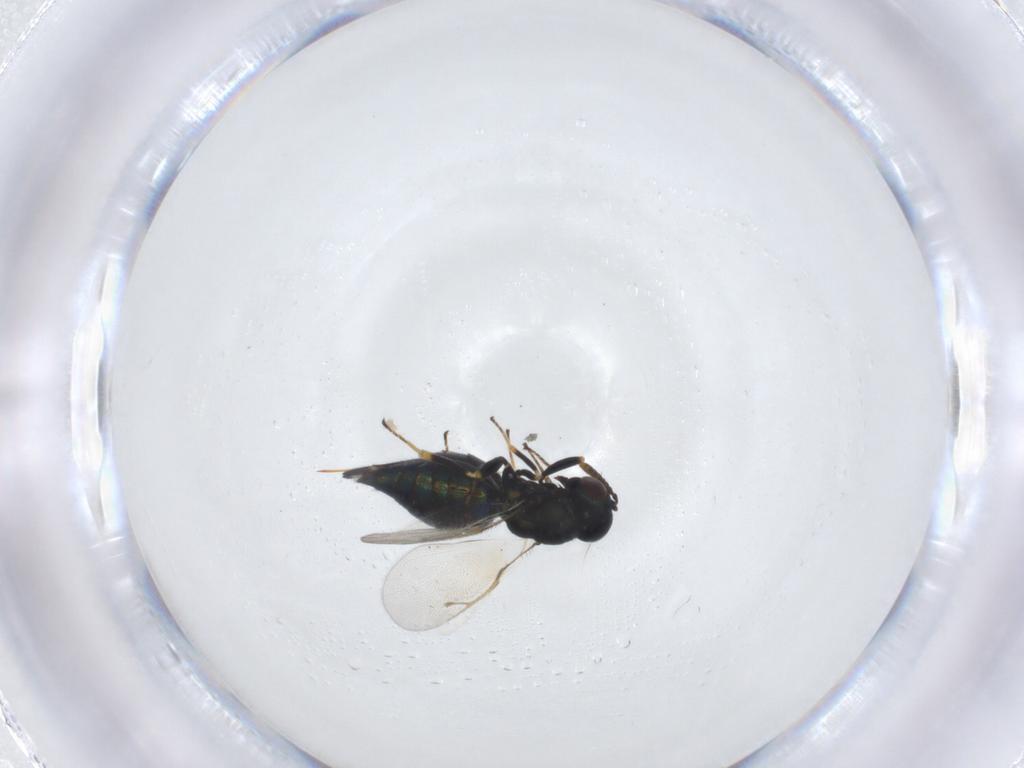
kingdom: Animalia
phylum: Arthropoda
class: Insecta
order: Hymenoptera
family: Pteromalidae
